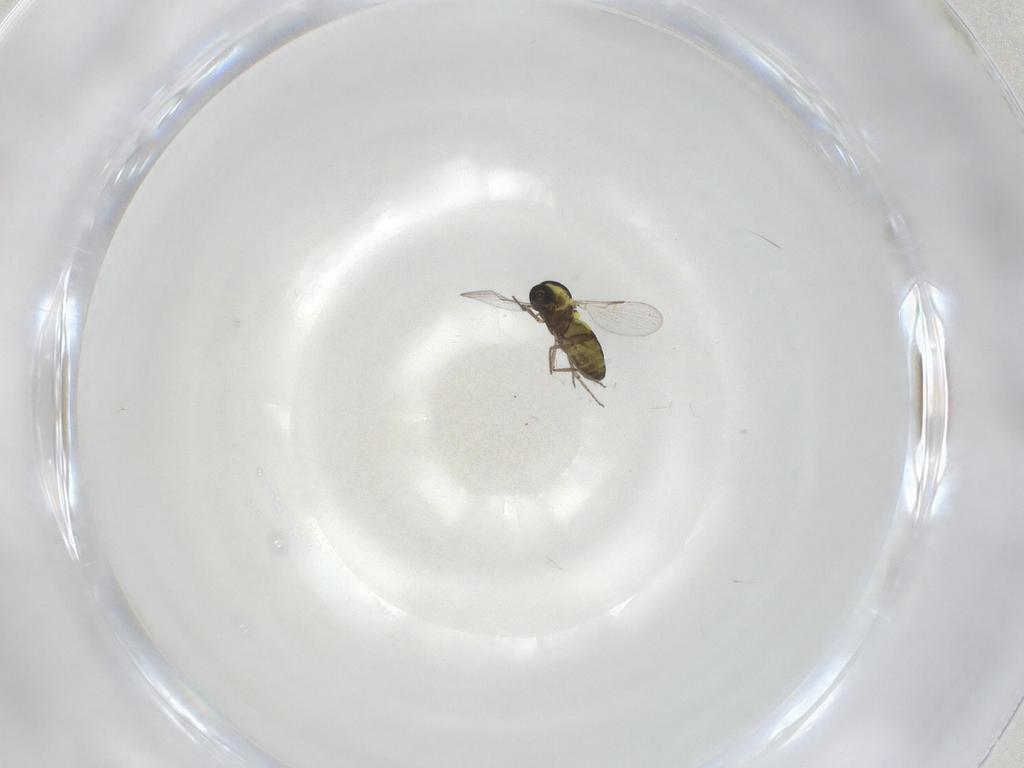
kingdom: Animalia
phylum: Arthropoda
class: Insecta
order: Diptera
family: Ceratopogonidae
